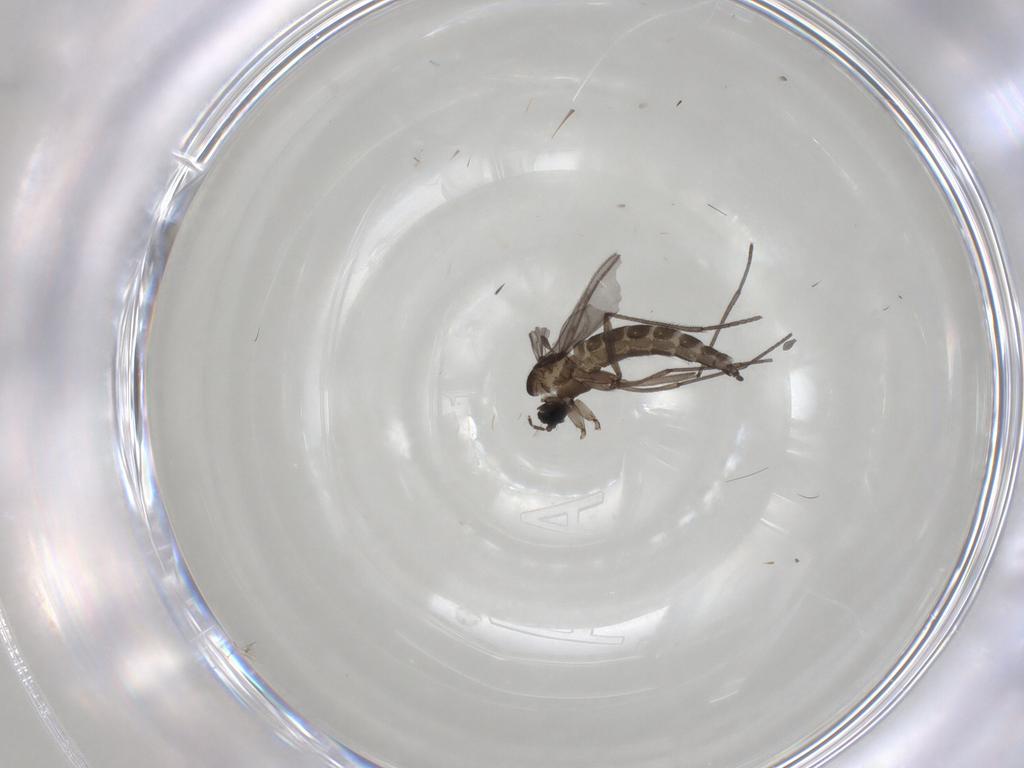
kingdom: Animalia
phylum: Arthropoda
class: Insecta
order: Diptera
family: Sciaridae
